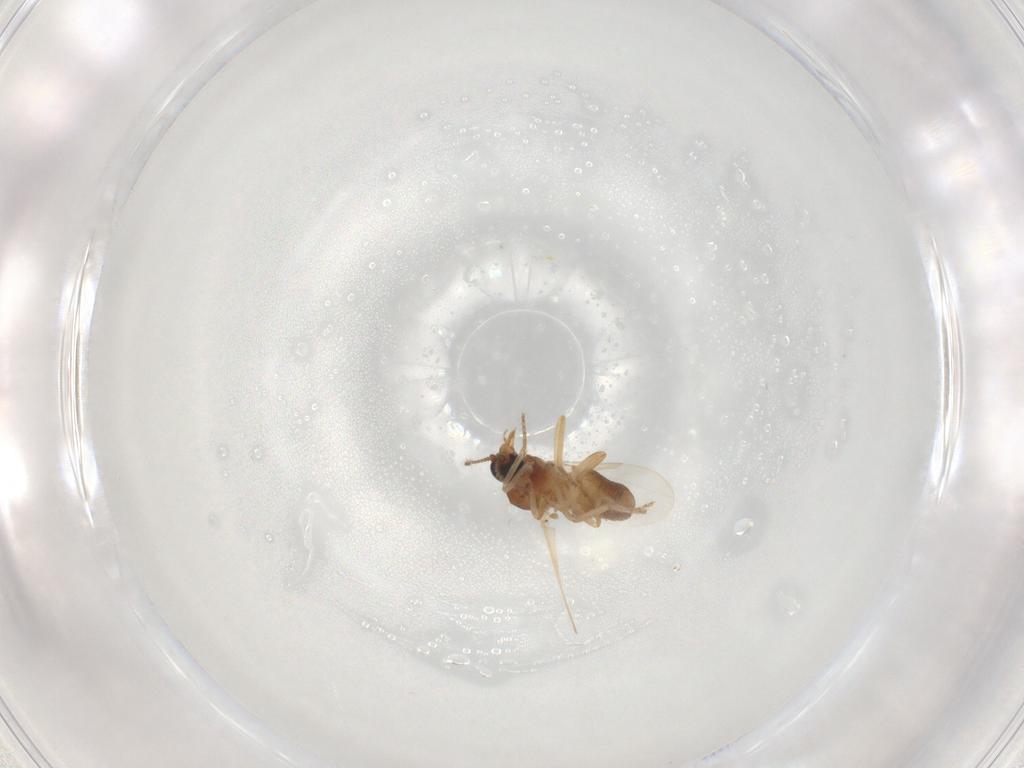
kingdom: Animalia
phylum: Arthropoda
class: Insecta
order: Diptera
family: Ceratopogonidae
